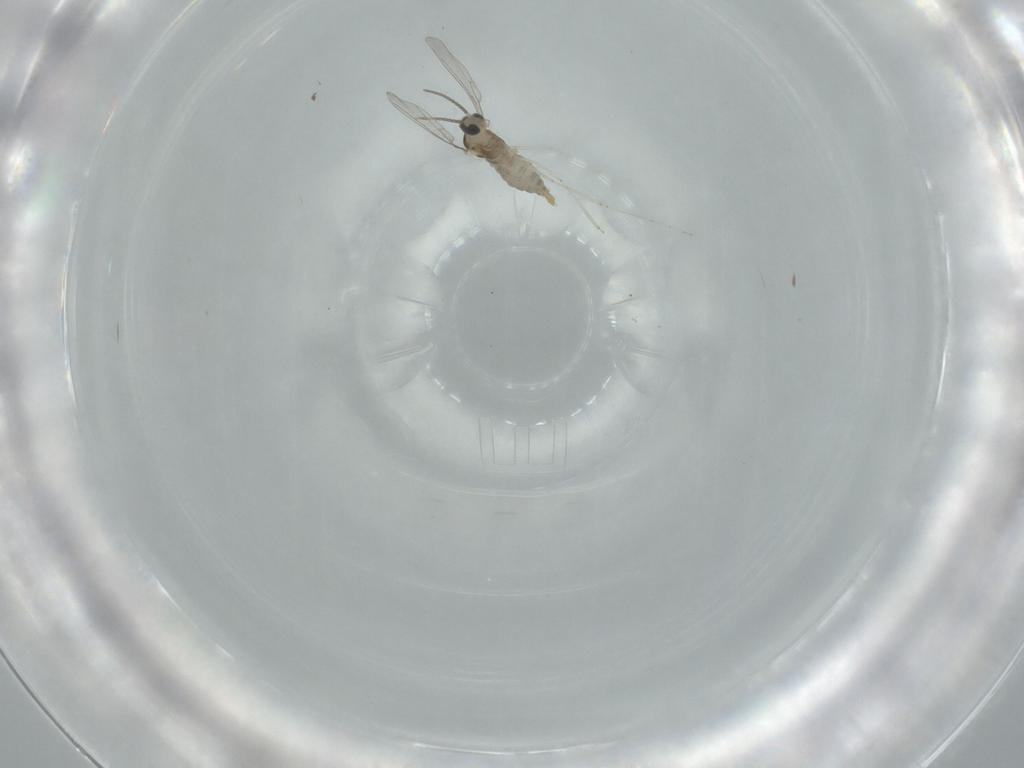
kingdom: Animalia
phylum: Arthropoda
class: Insecta
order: Diptera
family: Cecidomyiidae
